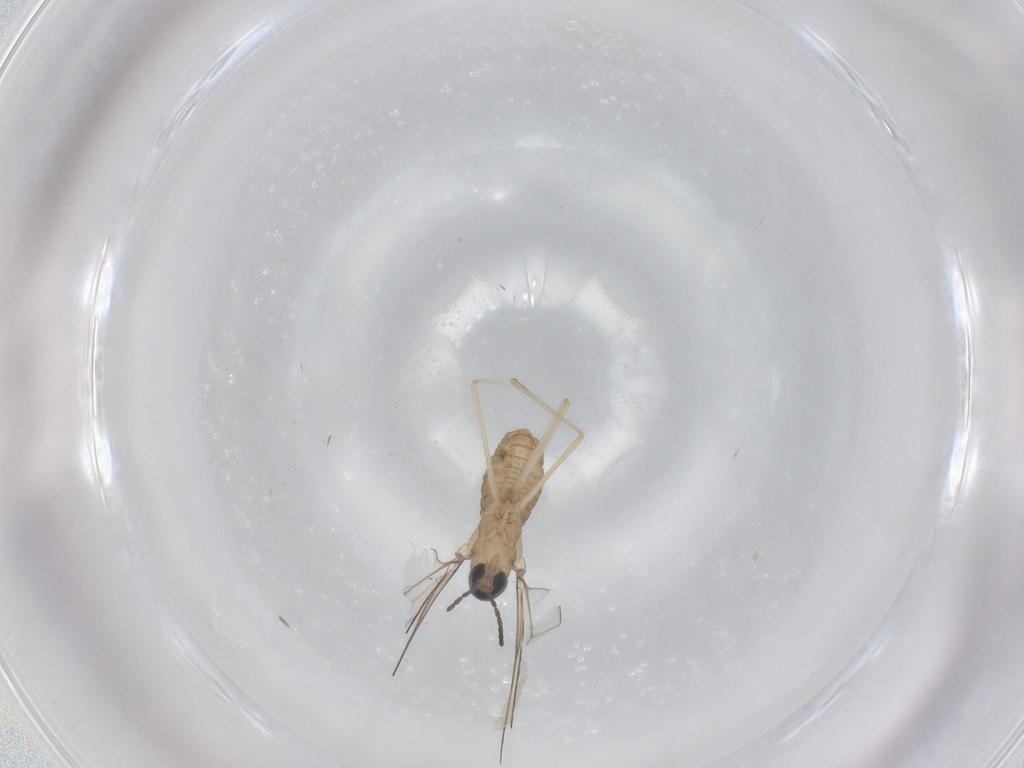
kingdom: Animalia
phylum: Arthropoda
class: Insecta
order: Diptera
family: Cecidomyiidae
